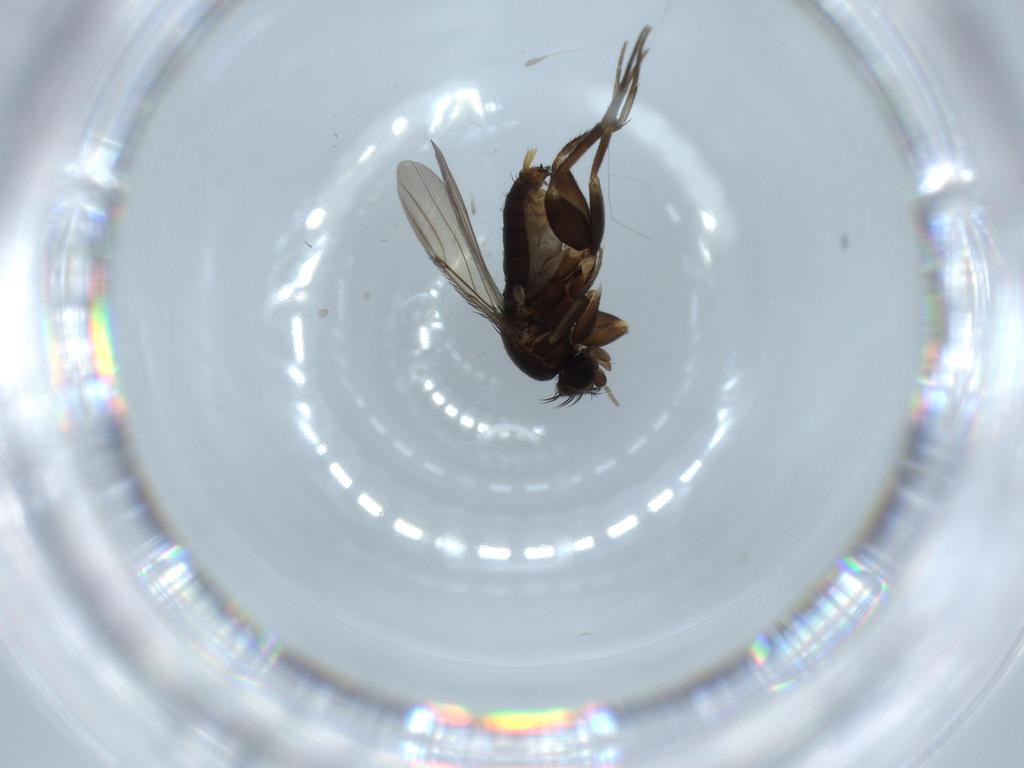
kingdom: Animalia
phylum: Arthropoda
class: Insecta
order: Diptera
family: Phoridae
